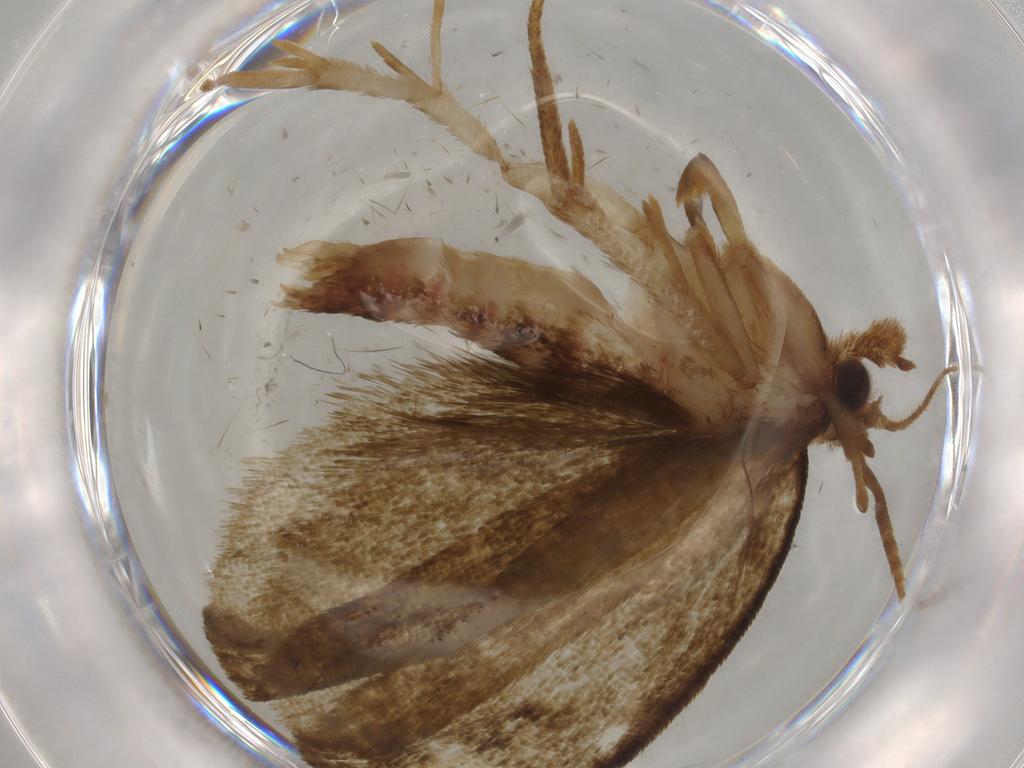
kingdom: Animalia
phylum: Arthropoda
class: Insecta
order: Lepidoptera
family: Geometridae
